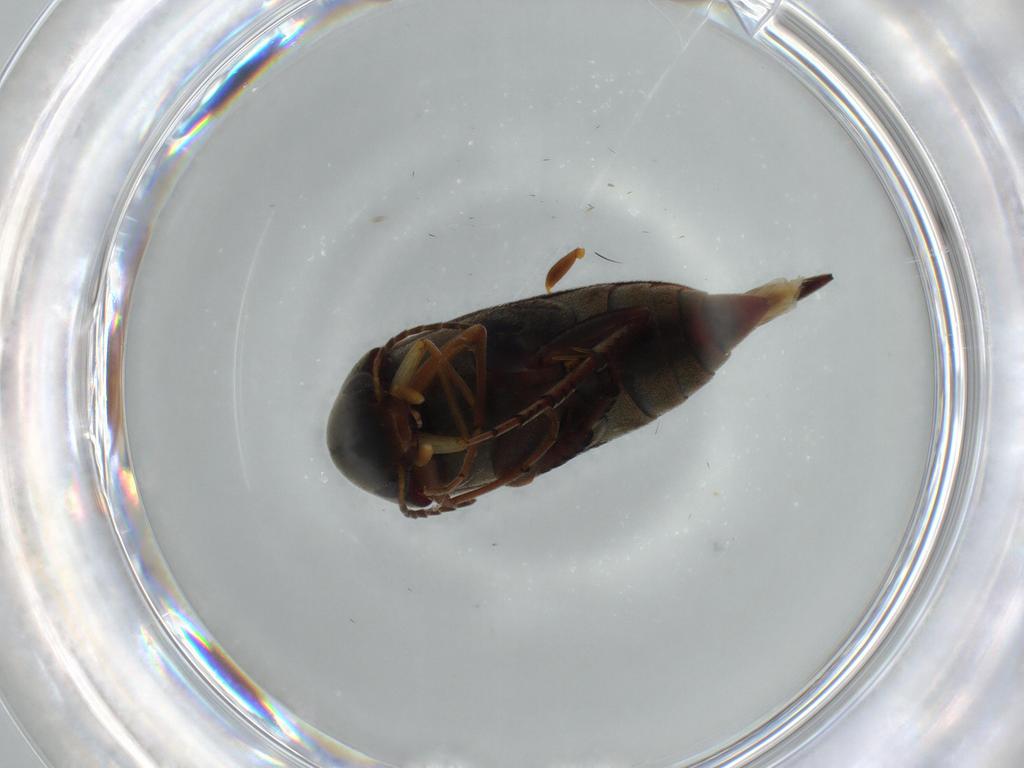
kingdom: Animalia
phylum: Arthropoda
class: Insecta
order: Coleoptera
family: Mordellidae
